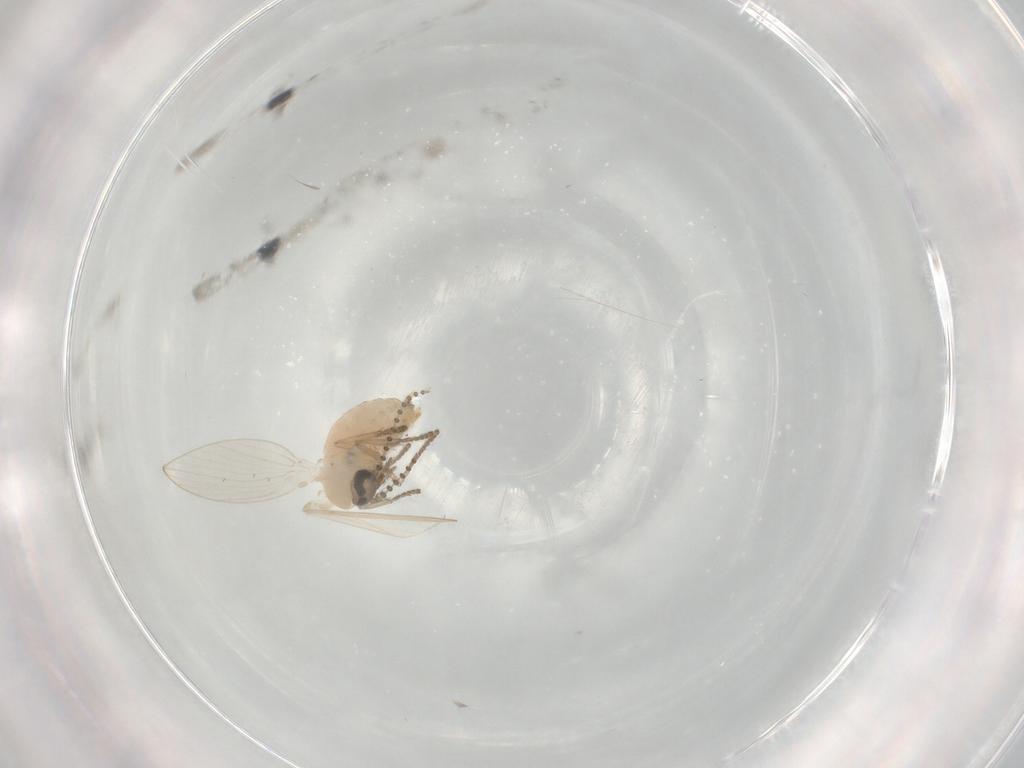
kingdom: Animalia
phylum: Arthropoda
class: Insecta
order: Diptera
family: Psychodidae
